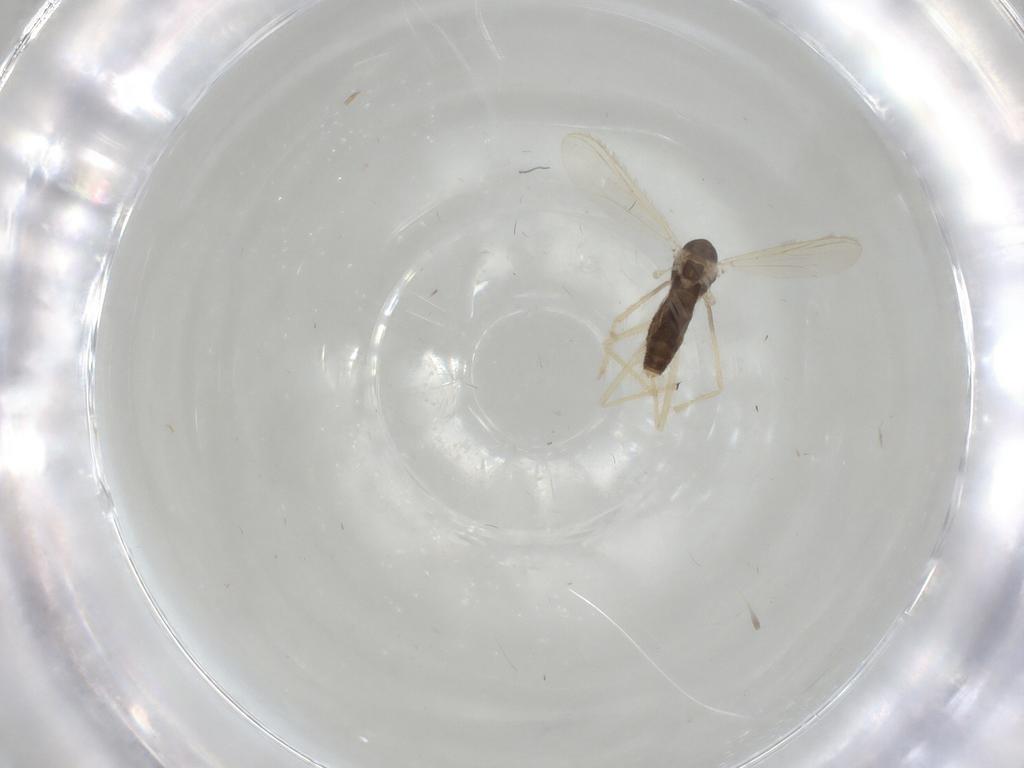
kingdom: Animalia
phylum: Arthropoda
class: Insecta
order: Diptera
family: Chironomidae
